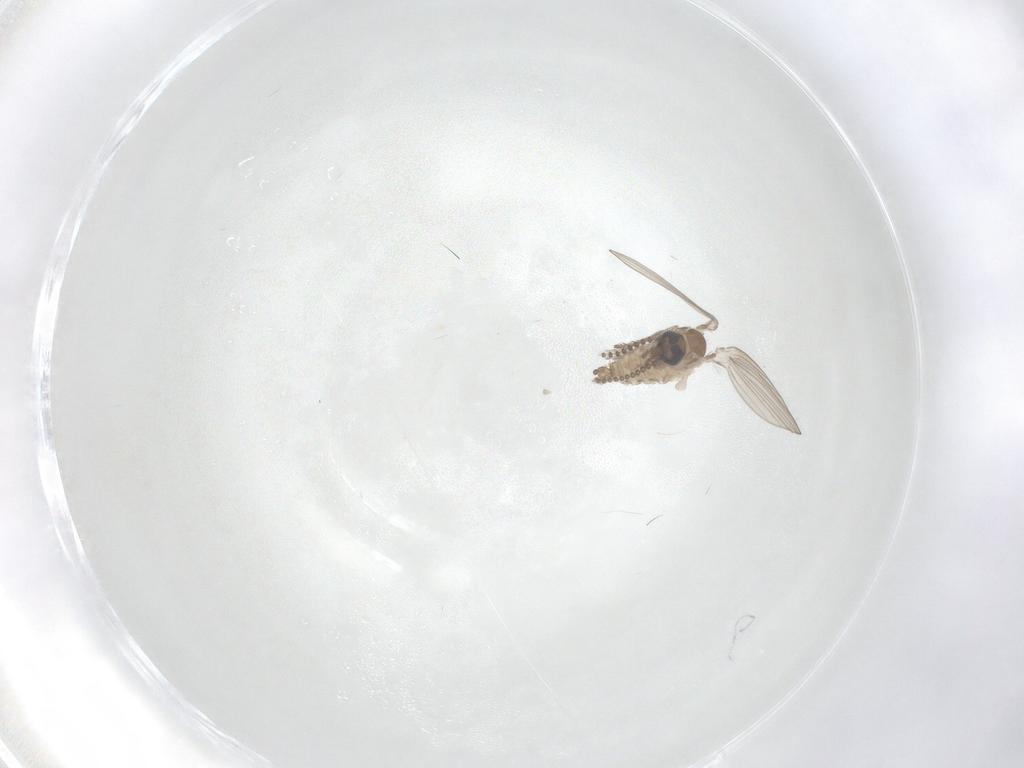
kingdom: Animalia
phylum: Arthropoda
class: Insecta
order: Diptera
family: Psychodidae
